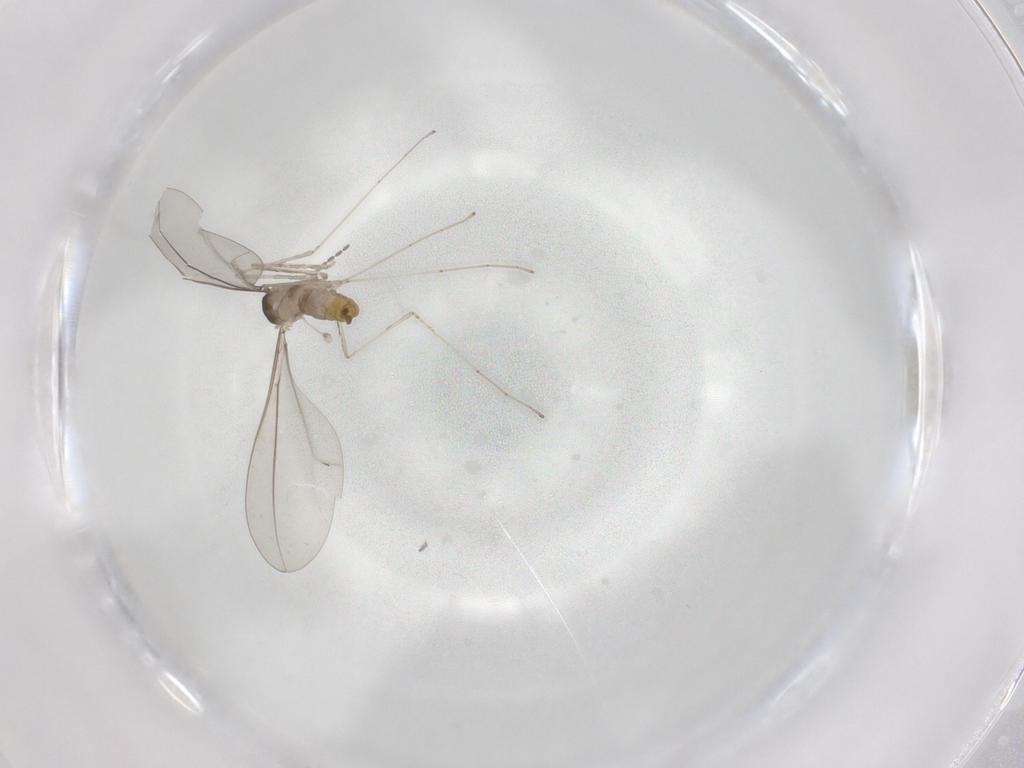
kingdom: Animalia
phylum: Arthropoda
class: Insecta
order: Diptera
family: Cecidomyiidae
